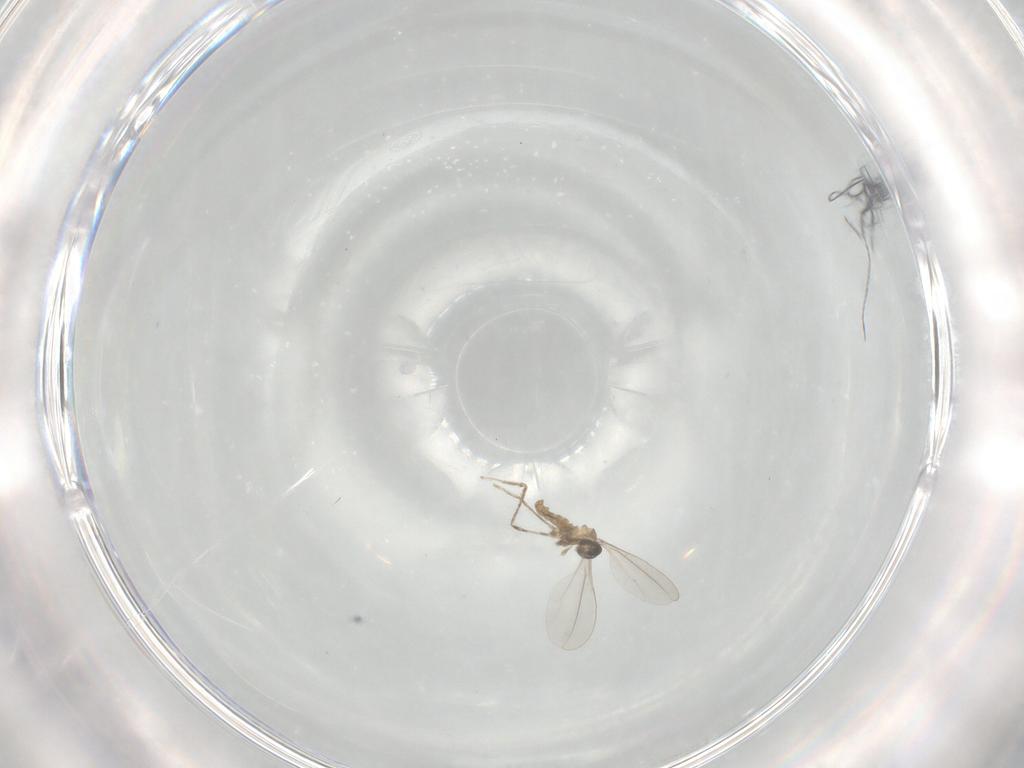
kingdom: Animalia
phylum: Arthropoda
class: Insecta
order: Diptera
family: Cecidomyiidae
